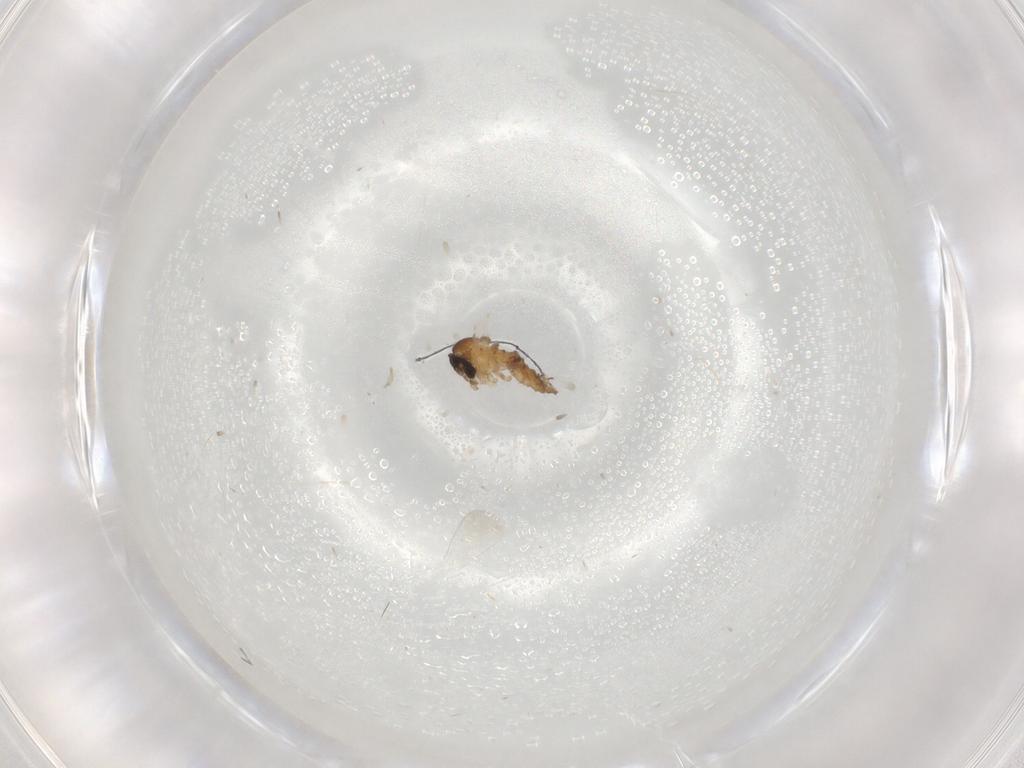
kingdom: Animalia
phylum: Arthropoda
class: Insecta
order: Diptera
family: Psychodidae
